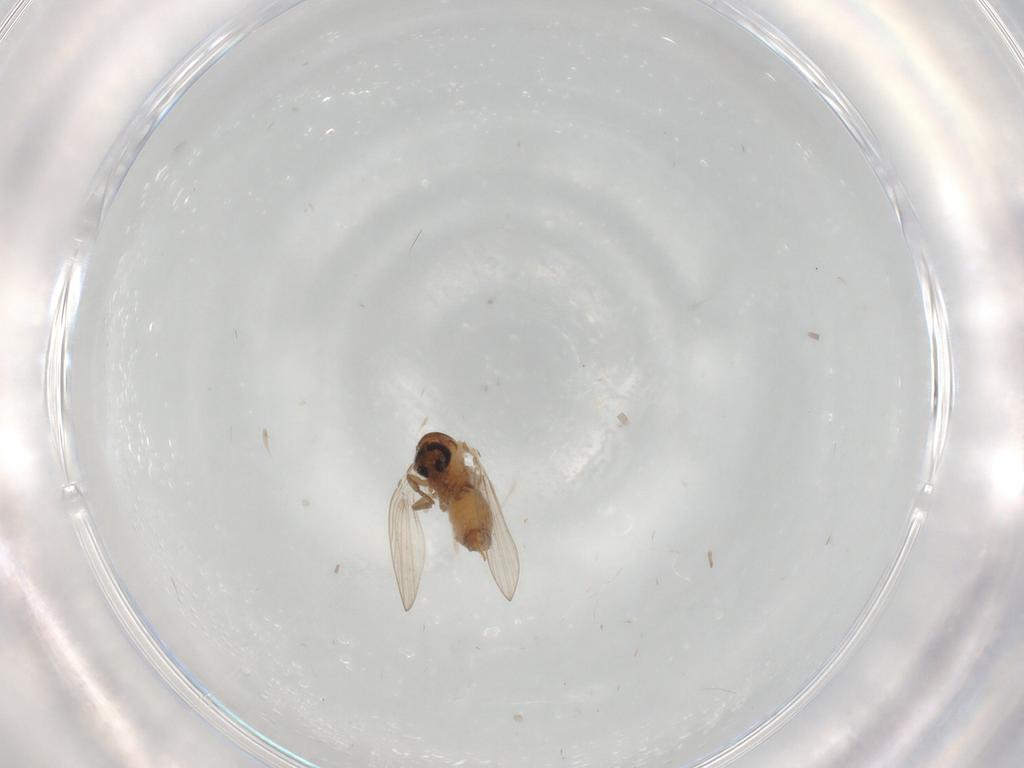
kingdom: Animalia
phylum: Arthropoda
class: Insecta
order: Diptera
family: Psychodidae
